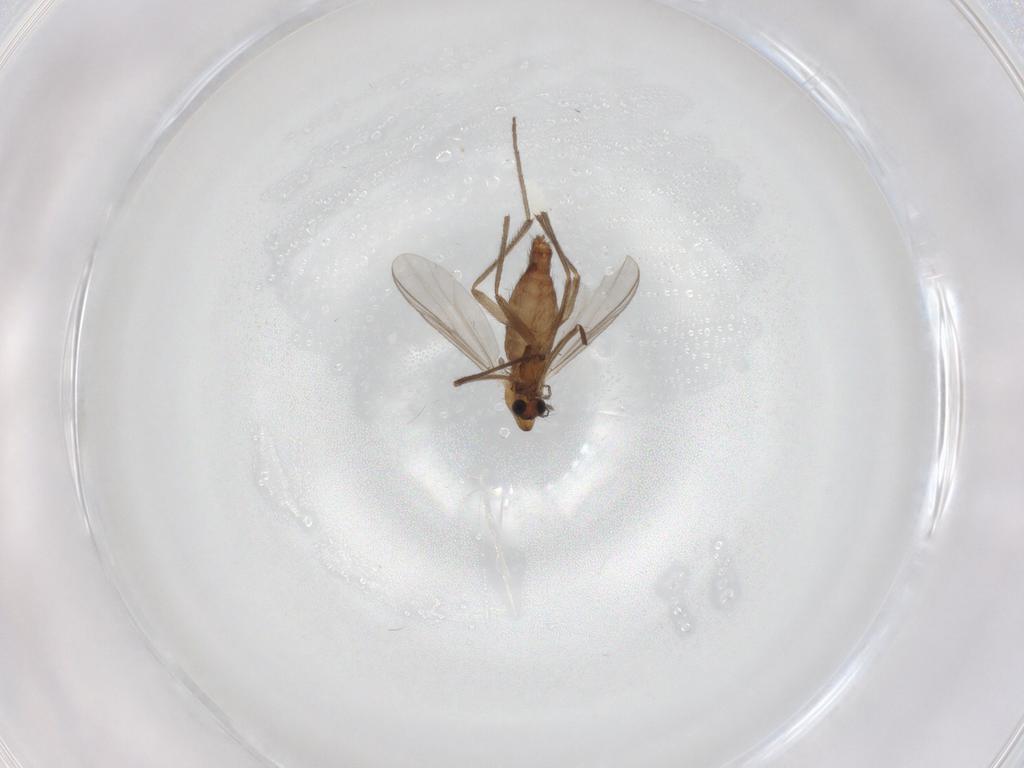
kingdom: Animalia
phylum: Arthropoda
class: Insecta
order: Diptera
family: Chironomidae
